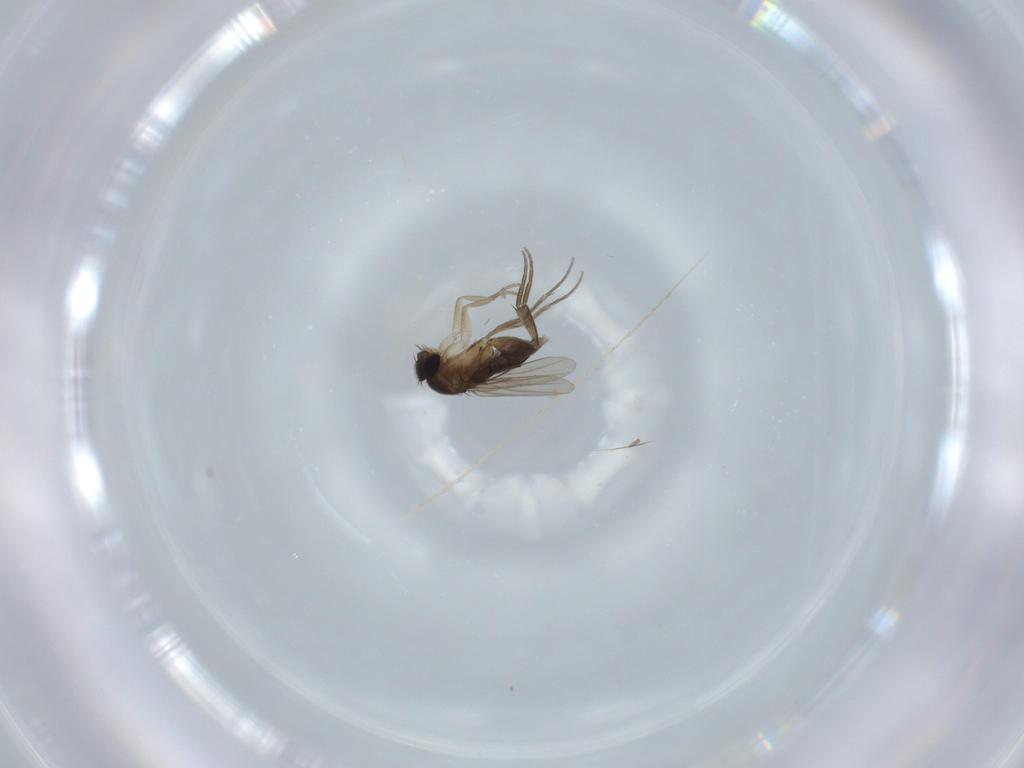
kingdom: Animalia
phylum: Arthropoda
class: Insecta
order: Diptera
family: Phoridae
